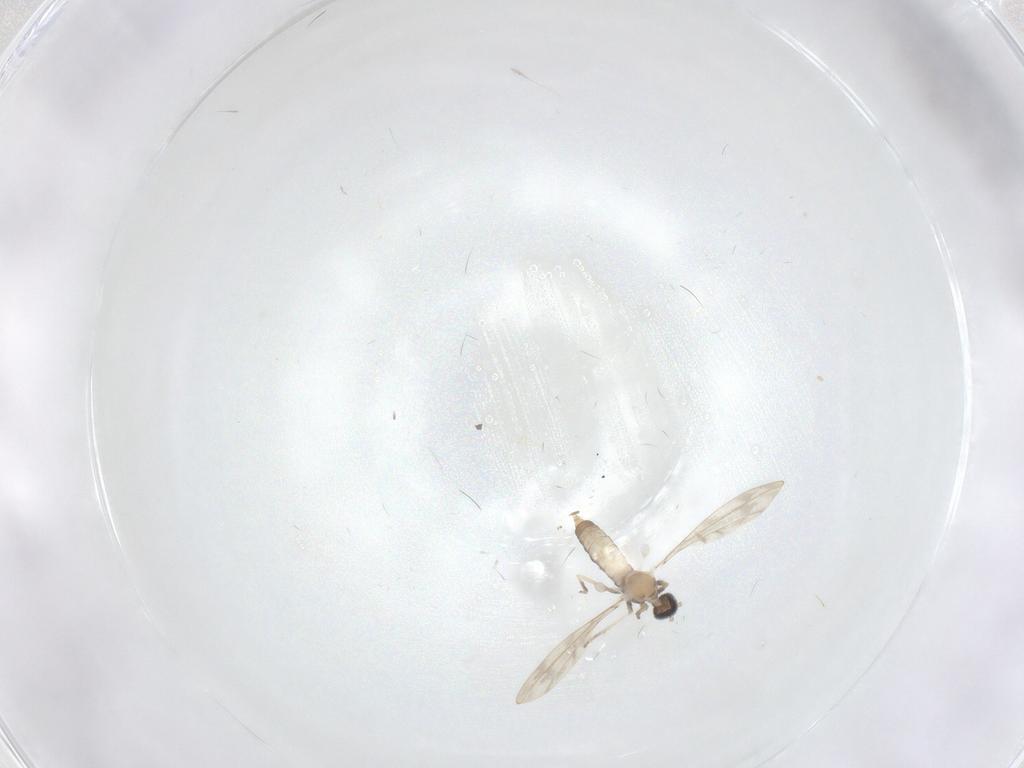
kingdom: Animalia
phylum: Arthropoda
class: Insecta
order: Diptera
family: Cecidomyiidae
